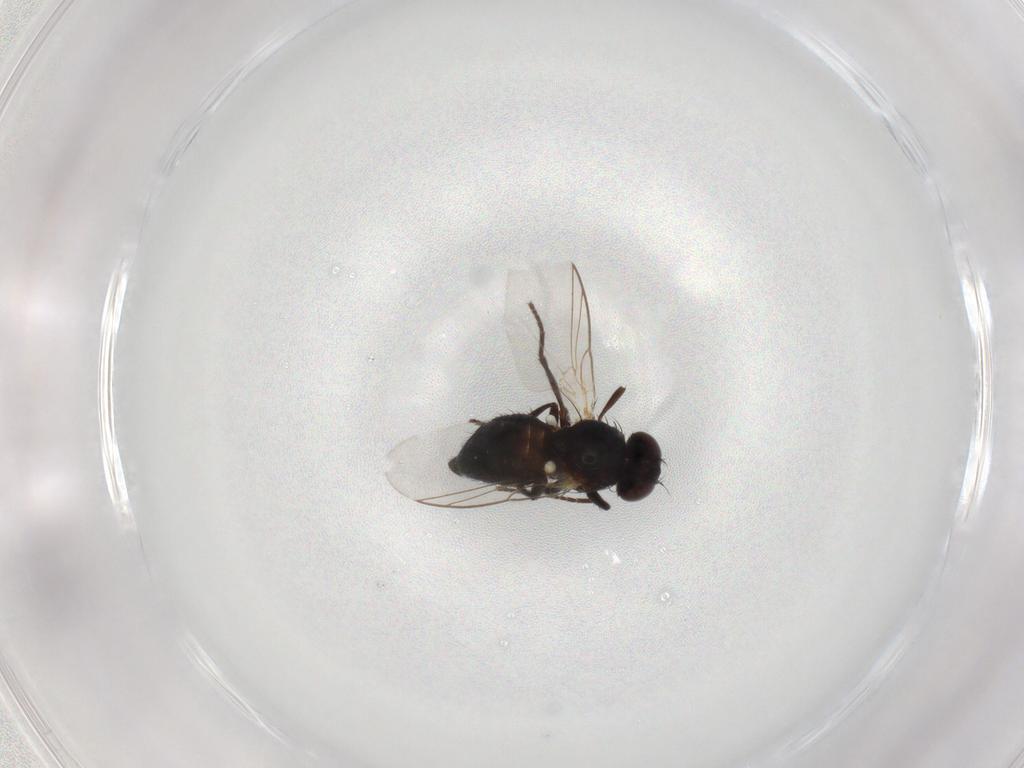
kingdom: Animalia
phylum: Arthropoda
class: Insecta
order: Diptera
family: Agromyzidae
